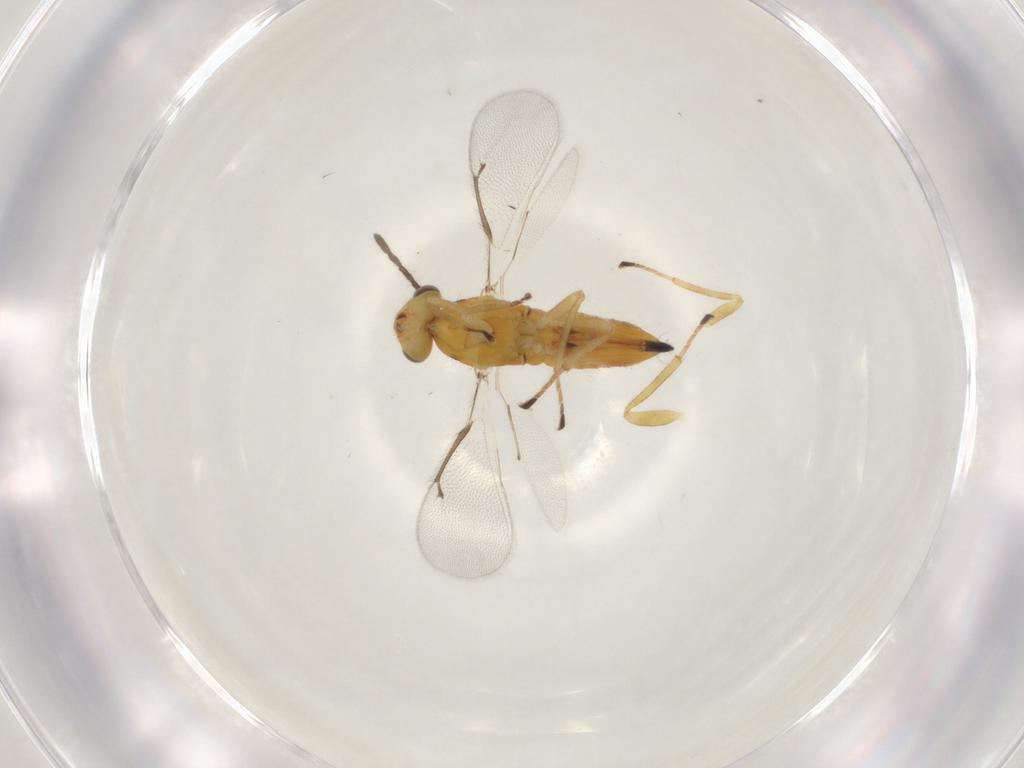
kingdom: Animalia
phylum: Arthropoda
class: Insecta
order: Hymenoptera
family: Eulophidae
